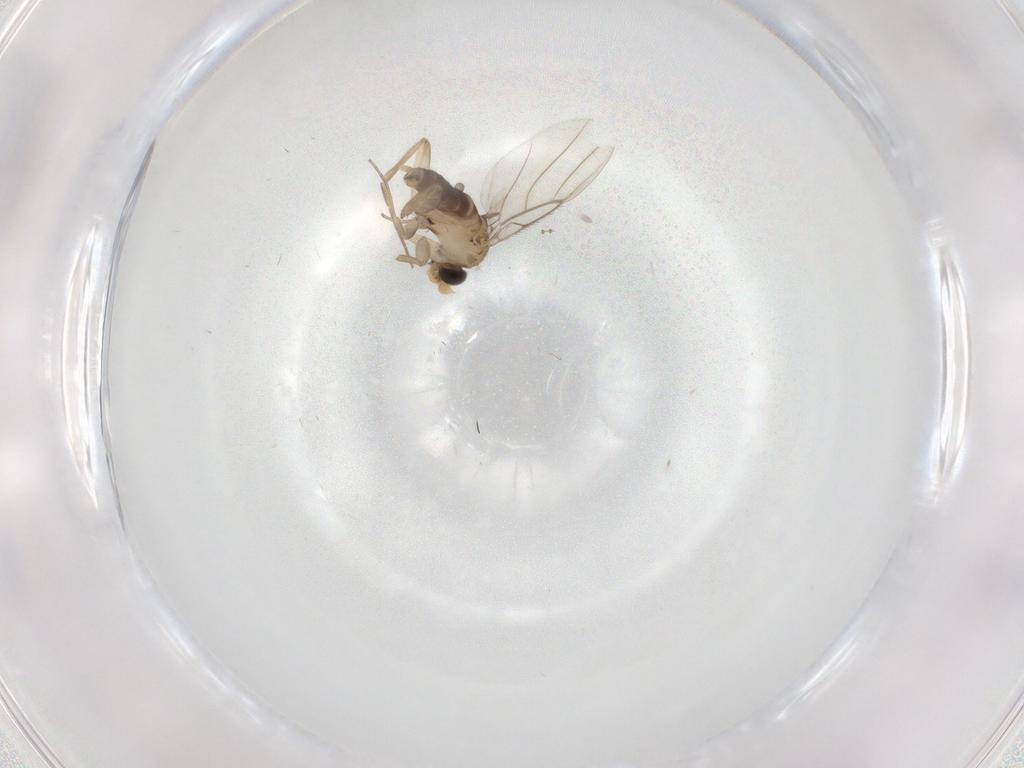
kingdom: Animalia
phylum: Arthropoda
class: Insecta
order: Diptera
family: Phoridae
